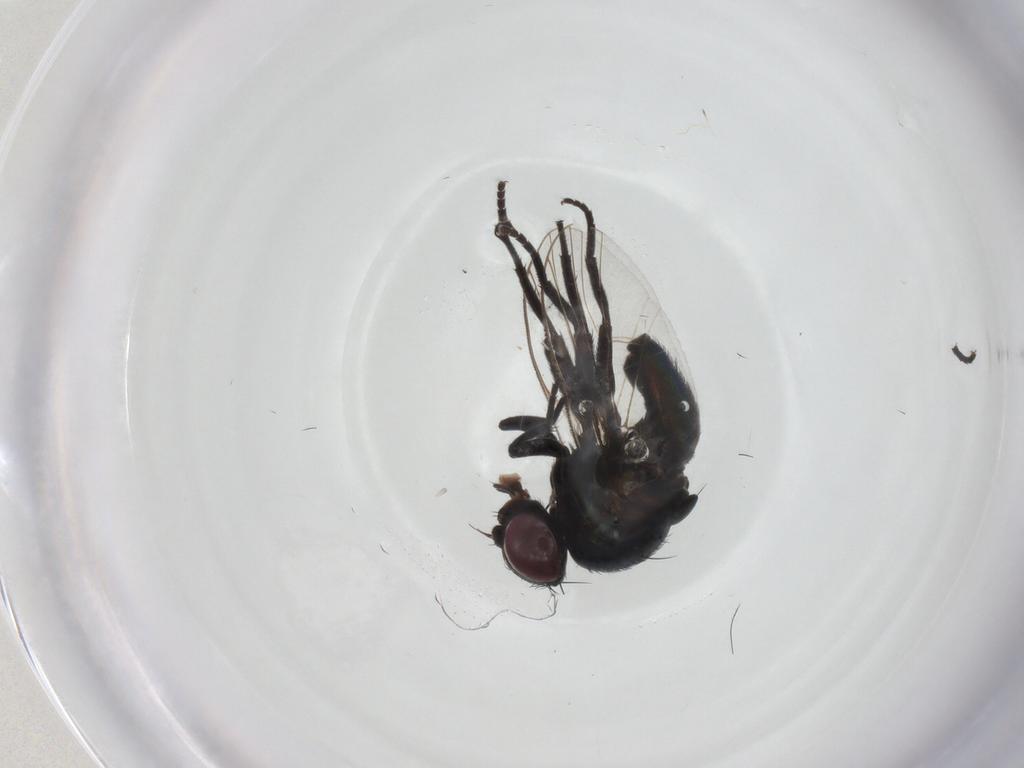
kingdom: Animalia
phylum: Arthropoda
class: Insecta
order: Diptera
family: Agromyzidae
